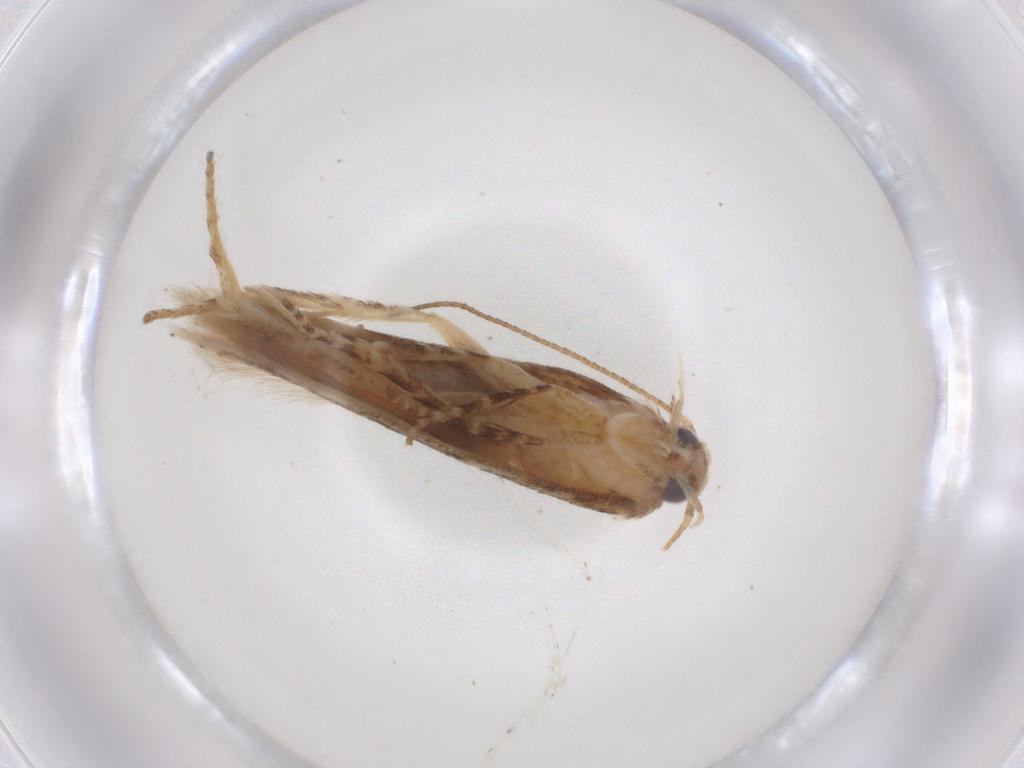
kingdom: Animalia
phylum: Arthropoda
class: Insecta
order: Lepidoptera
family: Gelechiidae
